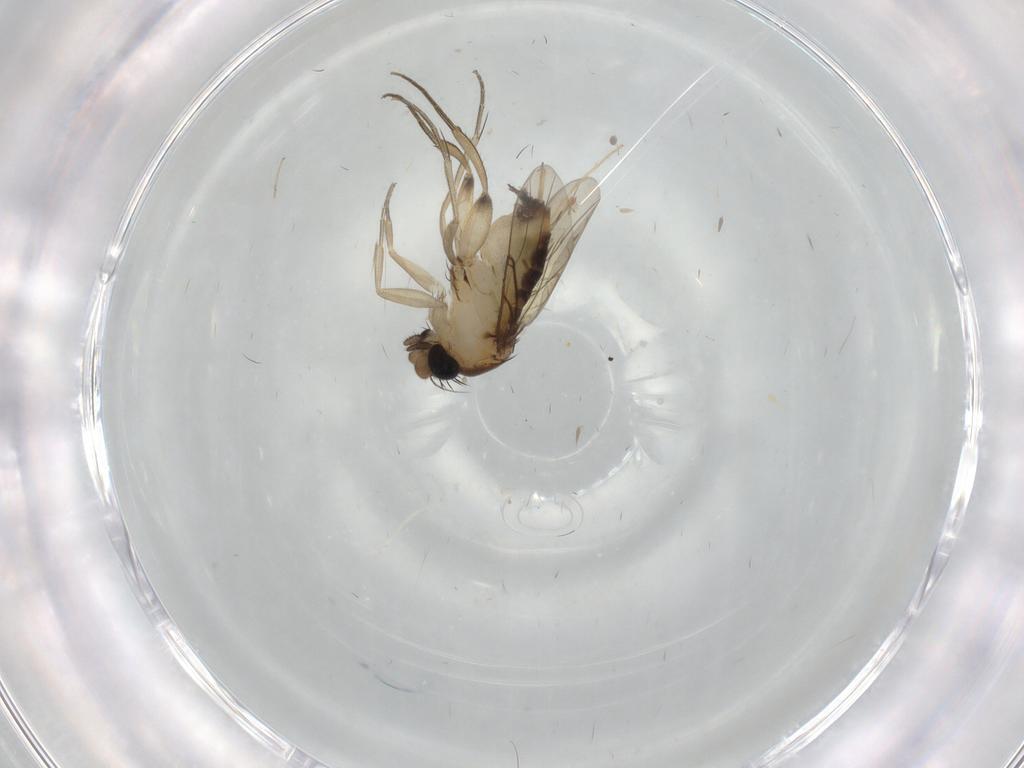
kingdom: Animalia
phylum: Arthropoda
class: Insecta
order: Diptera
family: Phoridae
